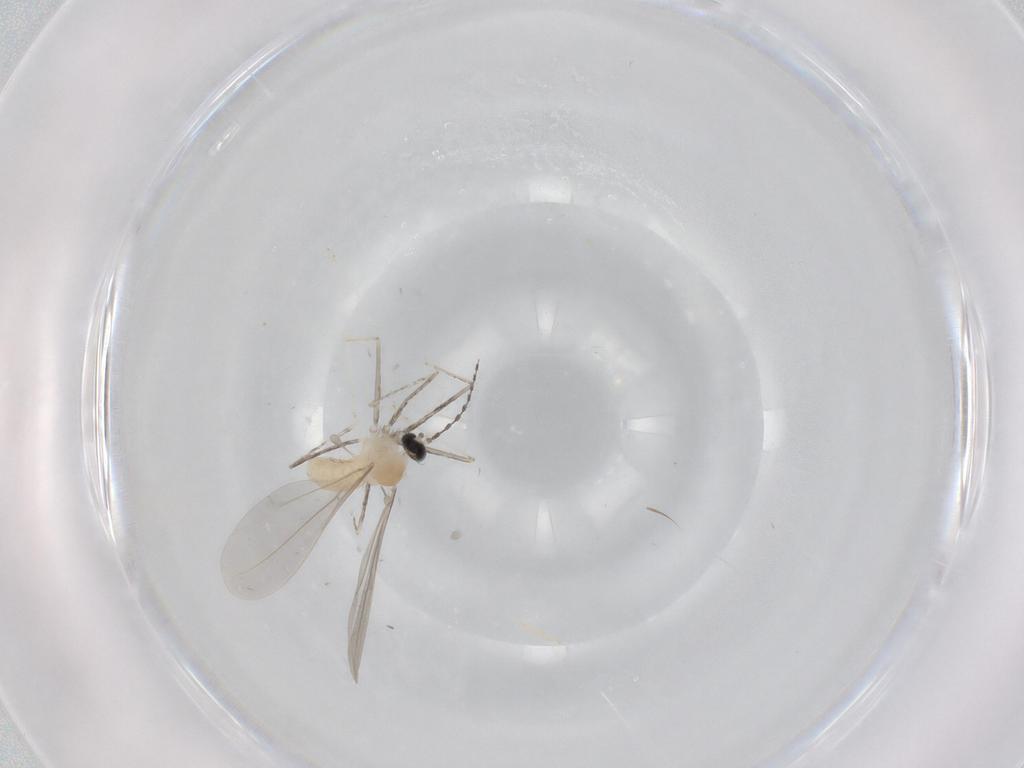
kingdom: Animalia
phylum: Arthropoda
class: Insecta
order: Diptera
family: Cecidomyiidae
